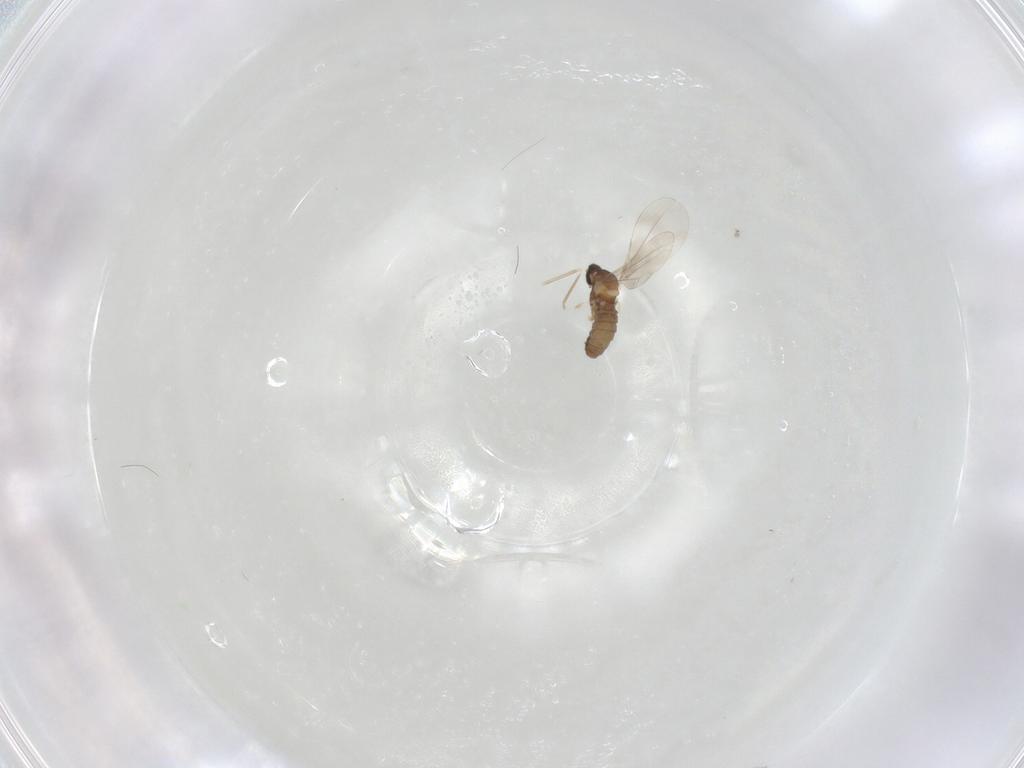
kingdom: Animalia
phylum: Arthropoda
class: Insecta
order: Diptera
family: Cecidomyiidae
